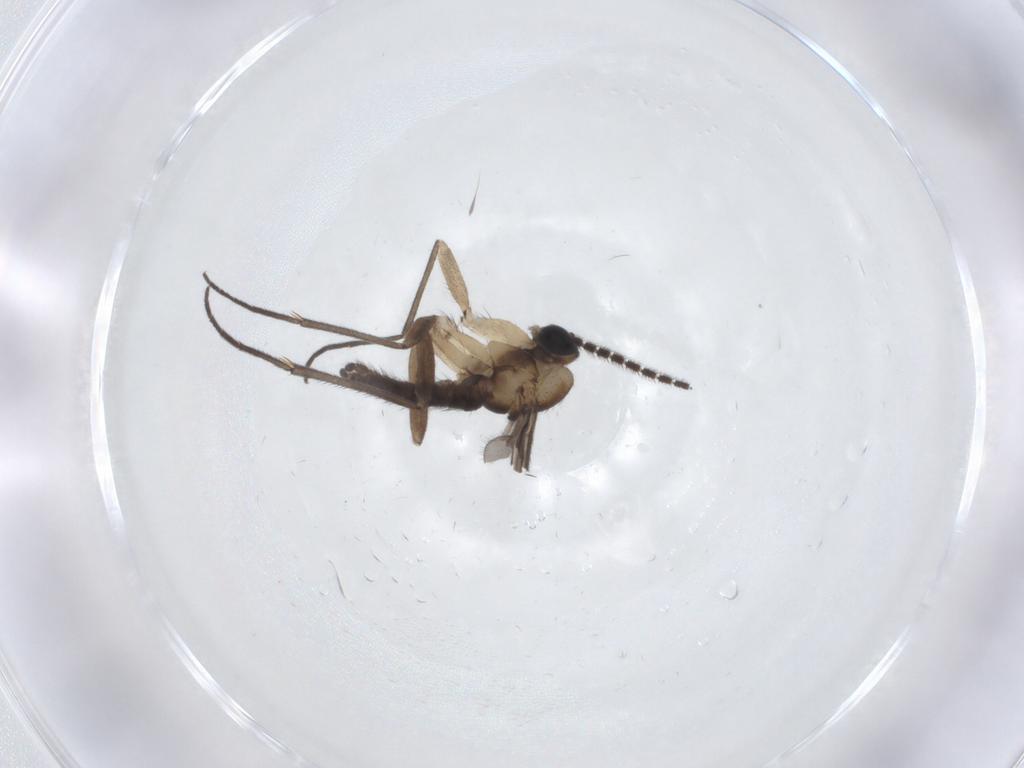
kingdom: Animalia
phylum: Arthropoda
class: Insecta
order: Diptera
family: Sciaridae
